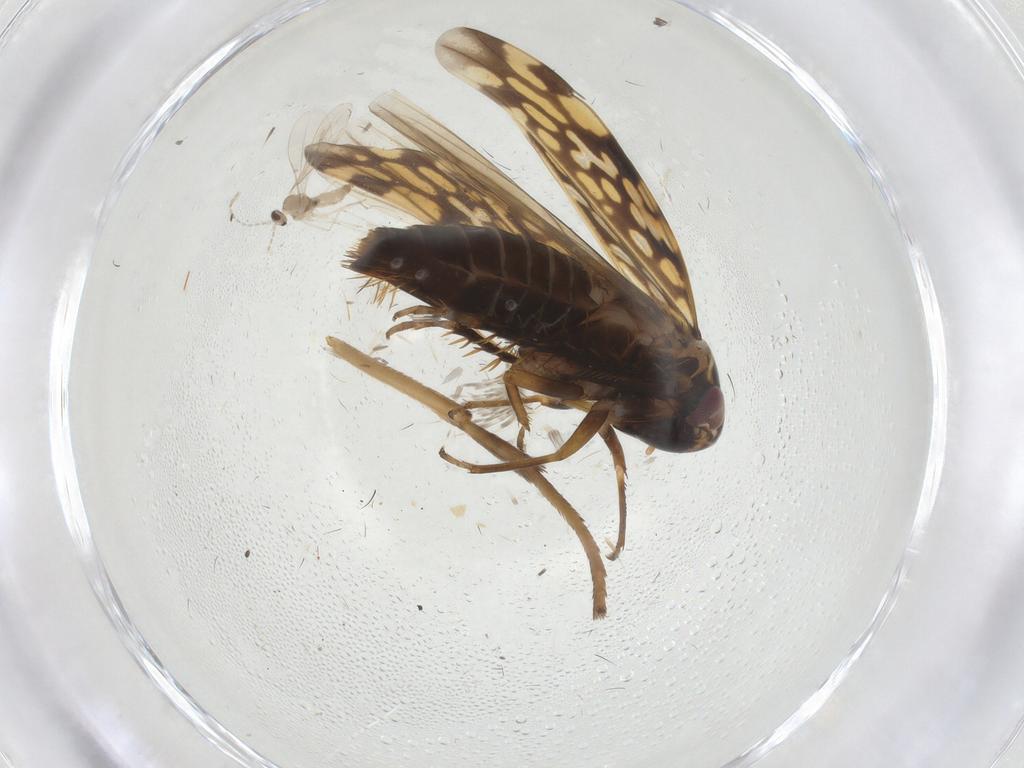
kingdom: Animalia
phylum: Arthropoda
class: Insecta
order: Hemiptera
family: Cicadellidae
